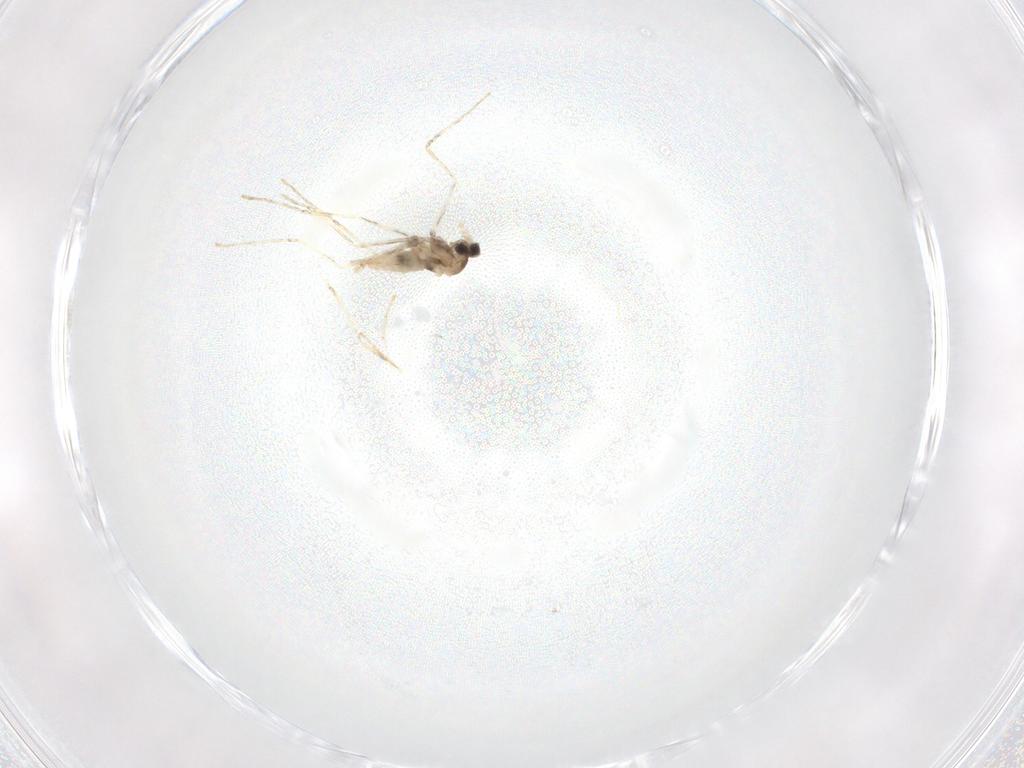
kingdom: Animalia
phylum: Arthropoda
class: Insecta
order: Diptera
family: Cecidomyiidae
